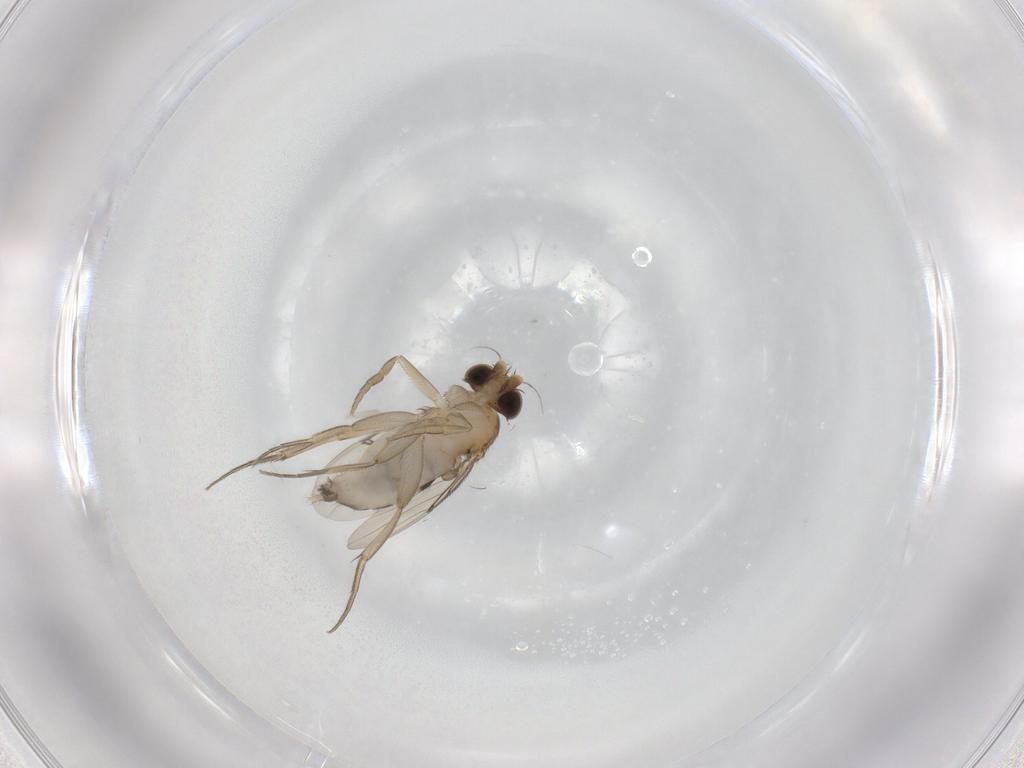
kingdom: Animalia
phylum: Arthropoda
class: Insecta
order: Diptera
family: Phoridae
